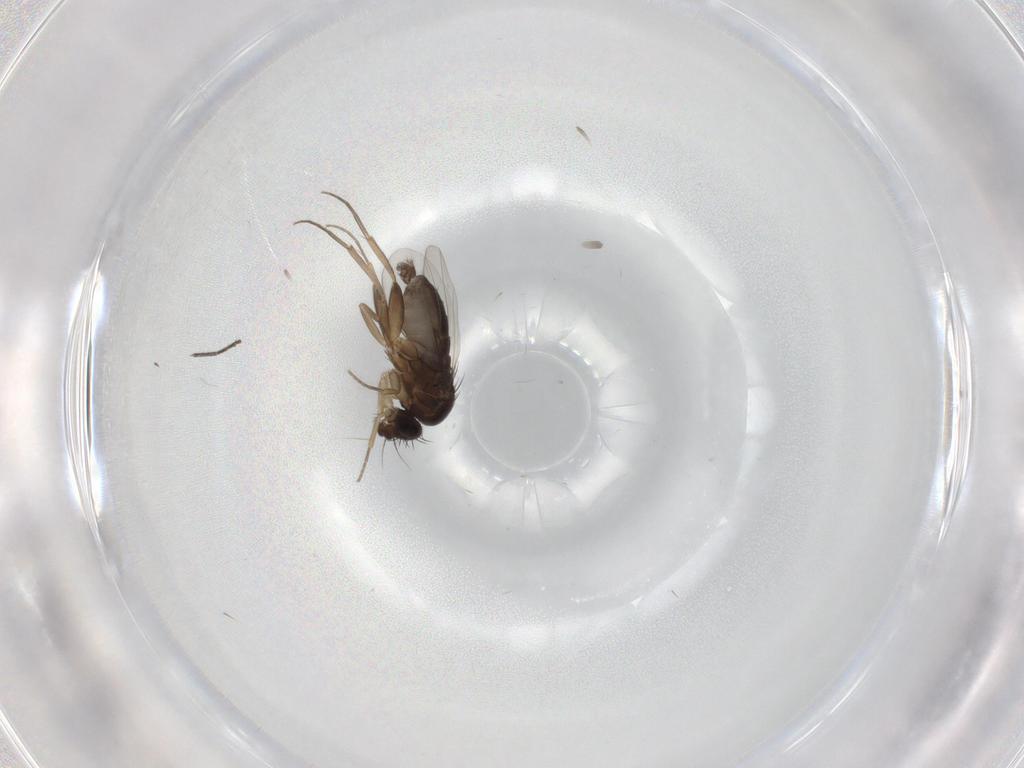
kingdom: Animalia
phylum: Arthropoda
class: Insecta
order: Diptera
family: Phoridae
